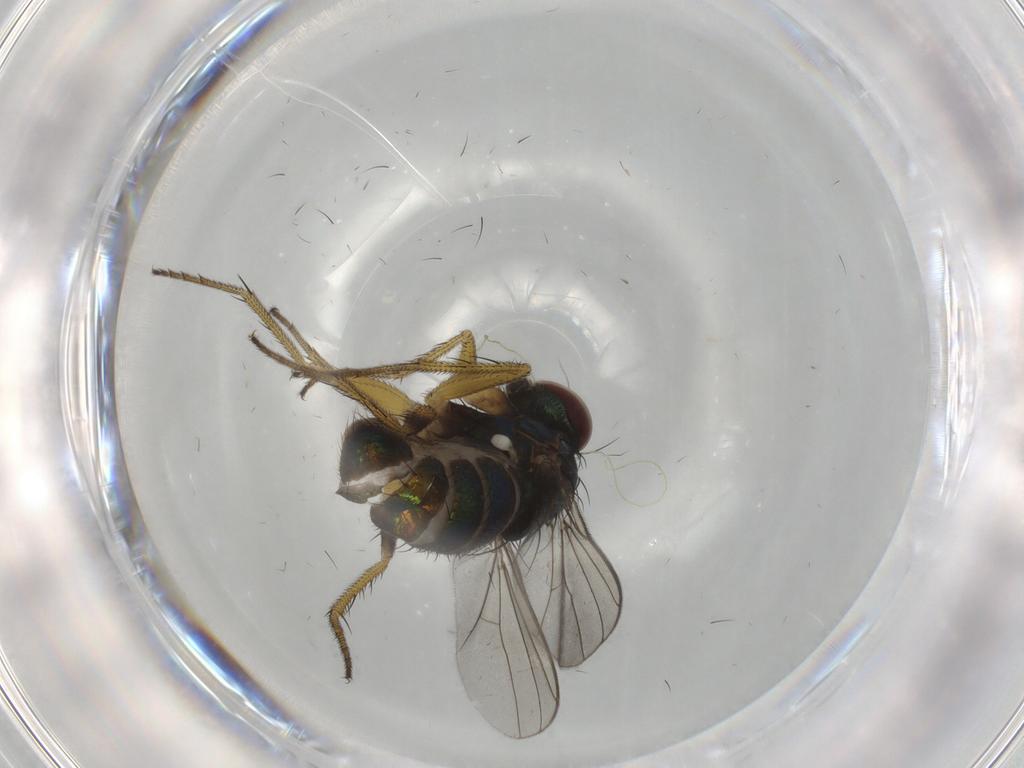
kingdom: Animalia
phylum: Arthropoda
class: Insecta
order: Diptera
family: Dolichopodidae
